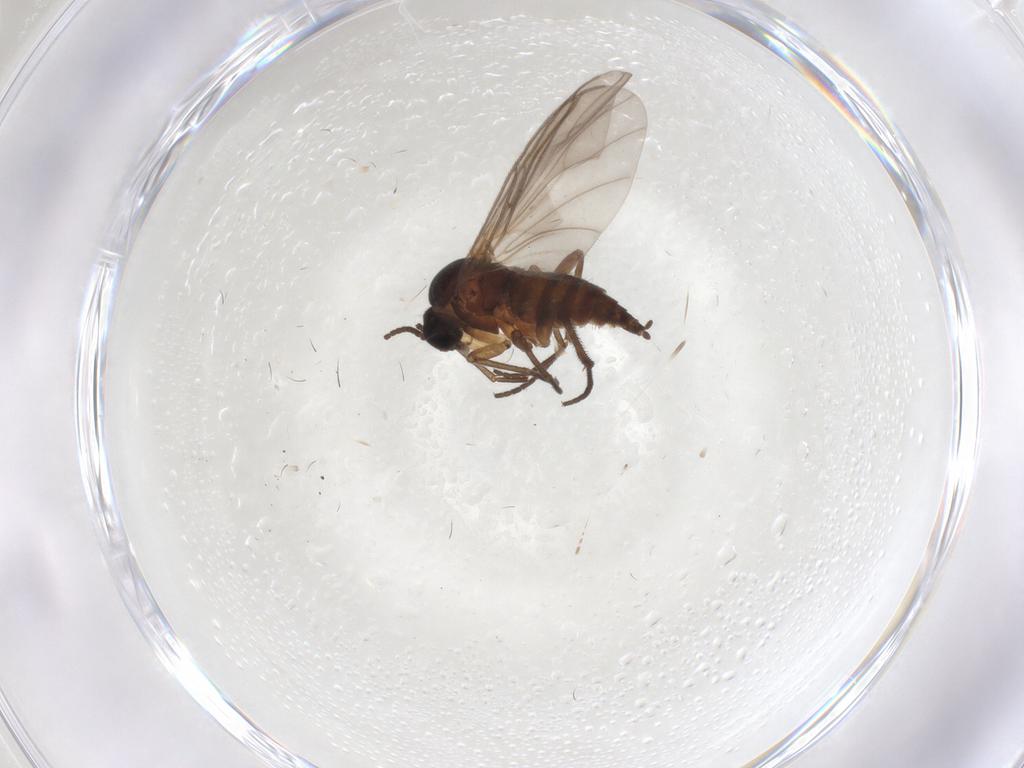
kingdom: Animalia
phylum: Arthropoda
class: Insecta
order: Diptera
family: Sciaridae
